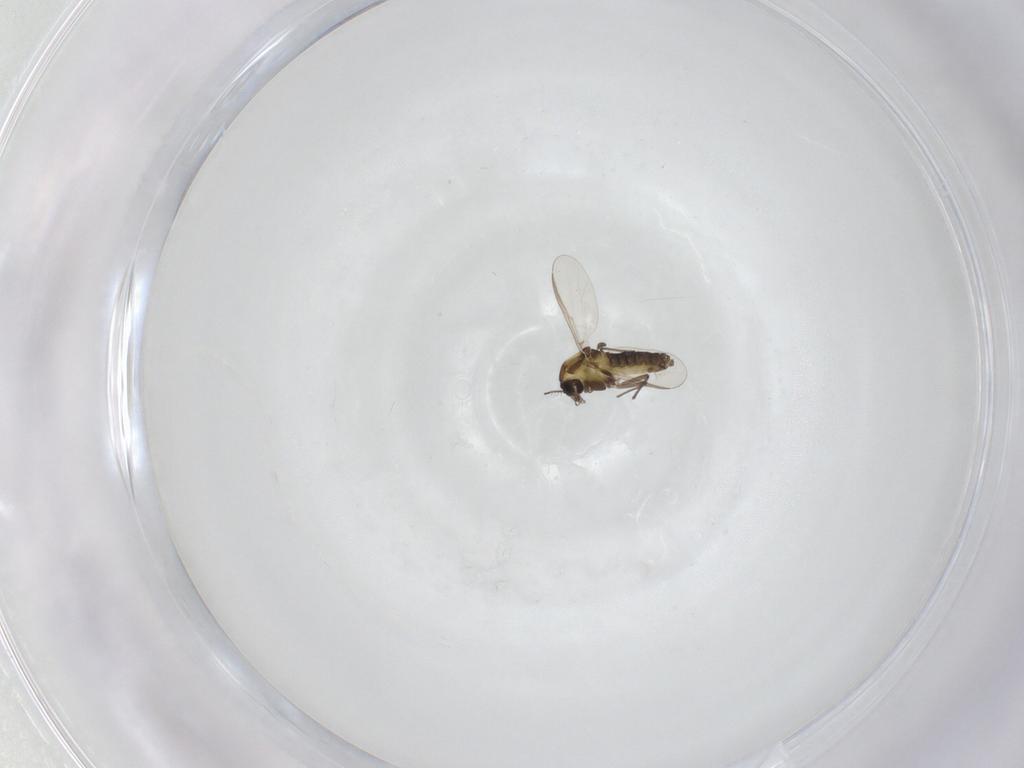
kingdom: Animalia
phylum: Arthropoda
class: Insecta
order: Diptera
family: Chironomidae
